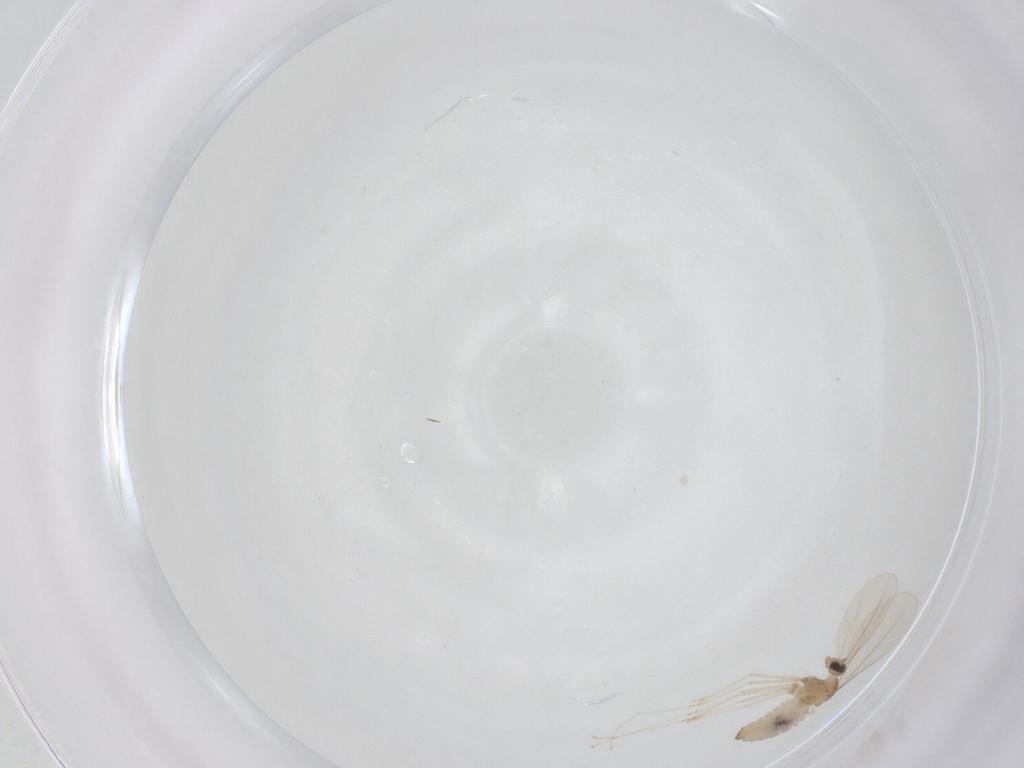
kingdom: Animalia
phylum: Arthropoda
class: Insecta
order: Diptera
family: Cecidomyiidae
